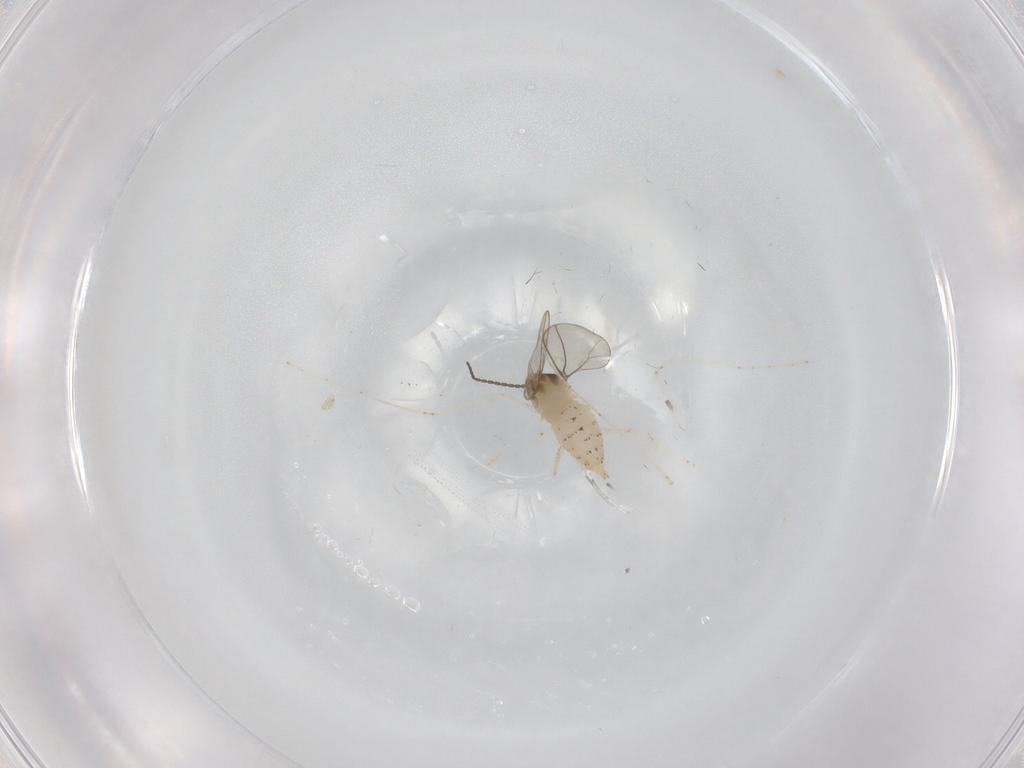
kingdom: Animalia
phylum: Arthropoda
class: Insecta
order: Diptera
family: Cecidomyiidae
